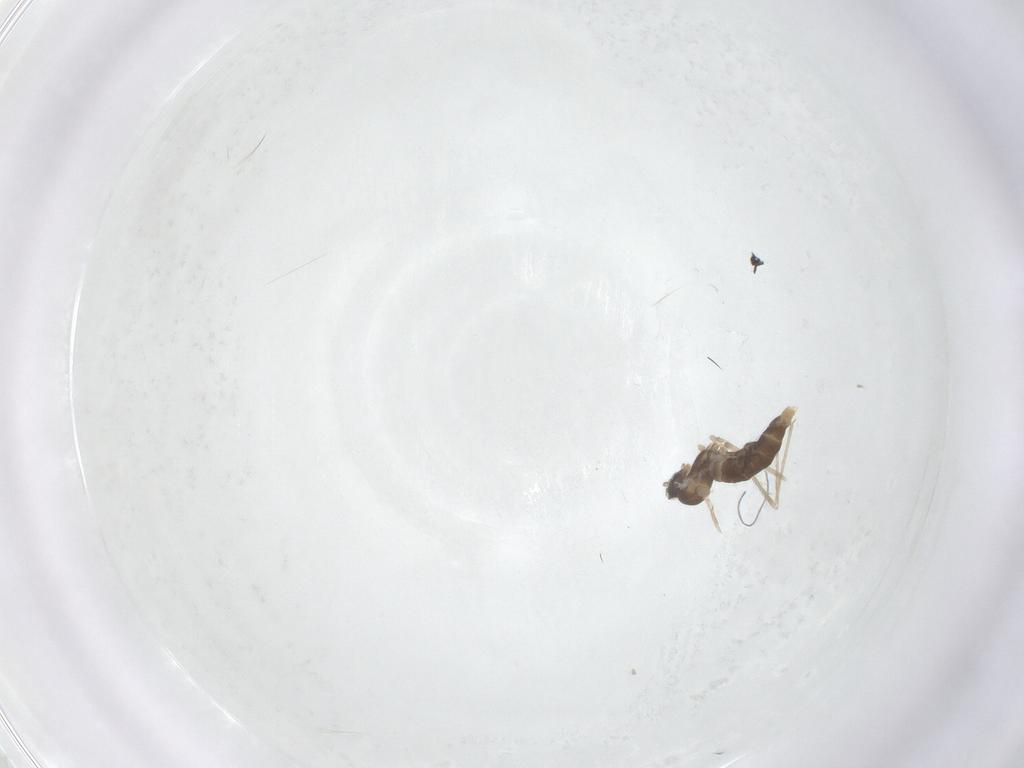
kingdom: Animalia
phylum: Arthropoda
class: Insecta
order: Diptera
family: Cecidomyiidae
